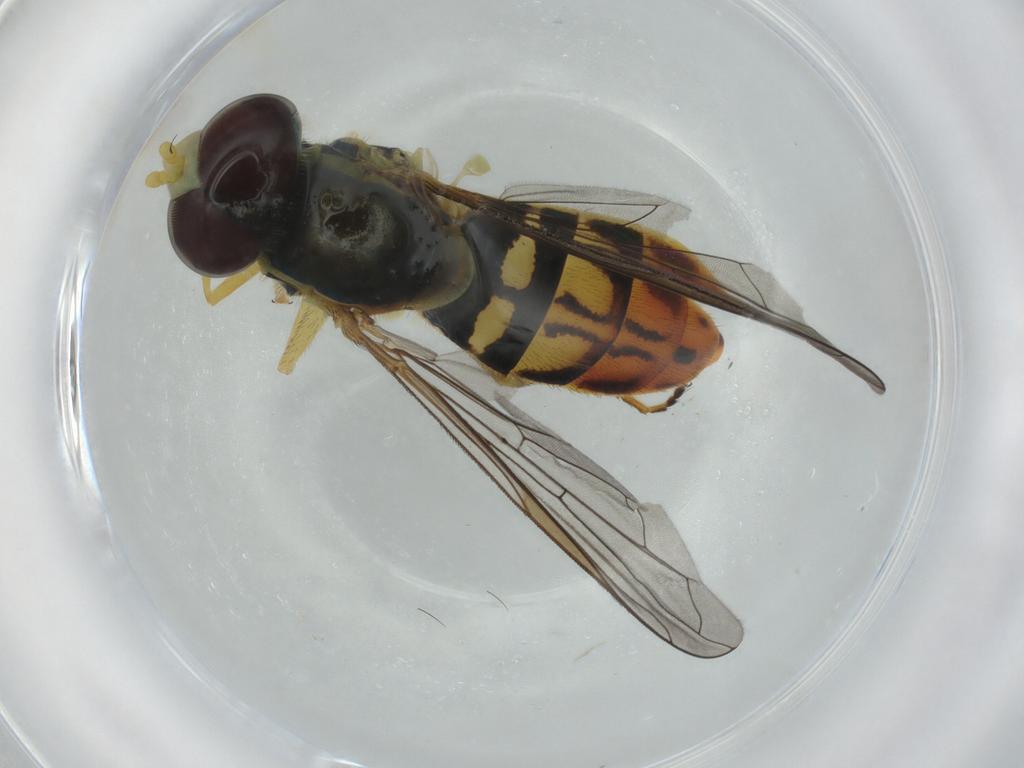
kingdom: Animalia
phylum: Arthropoda
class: Insecta
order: Diptera
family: Syrphidae
